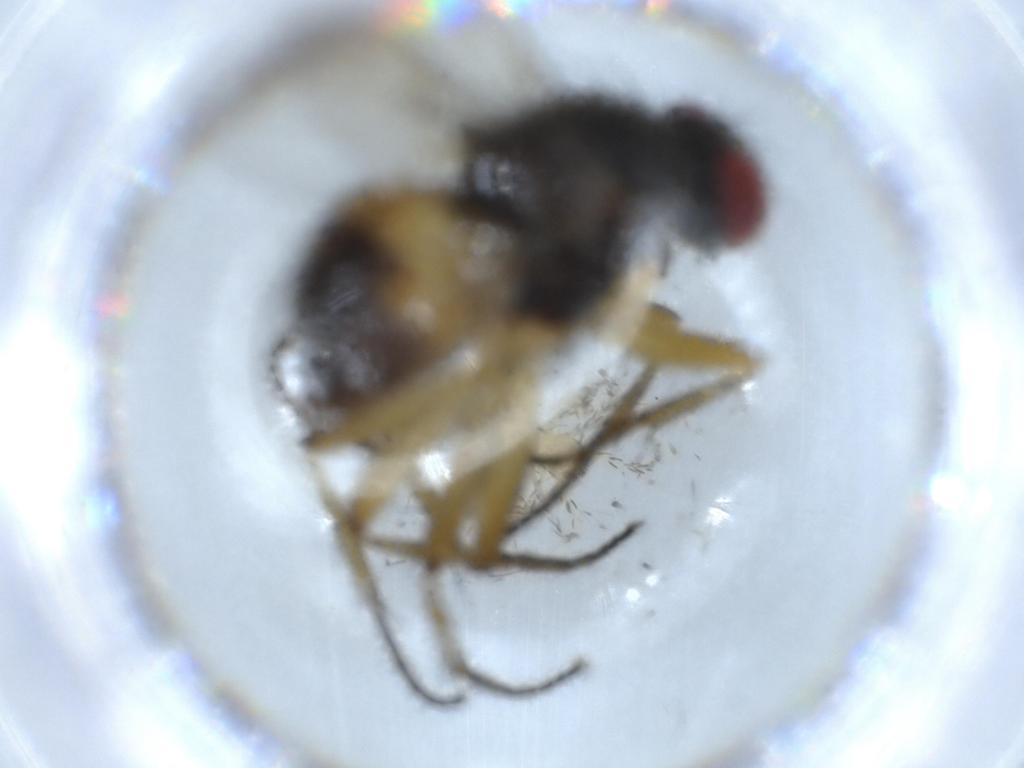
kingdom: Animalia
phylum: Arthropoda
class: Insecta
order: Diptera
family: Muscidae
